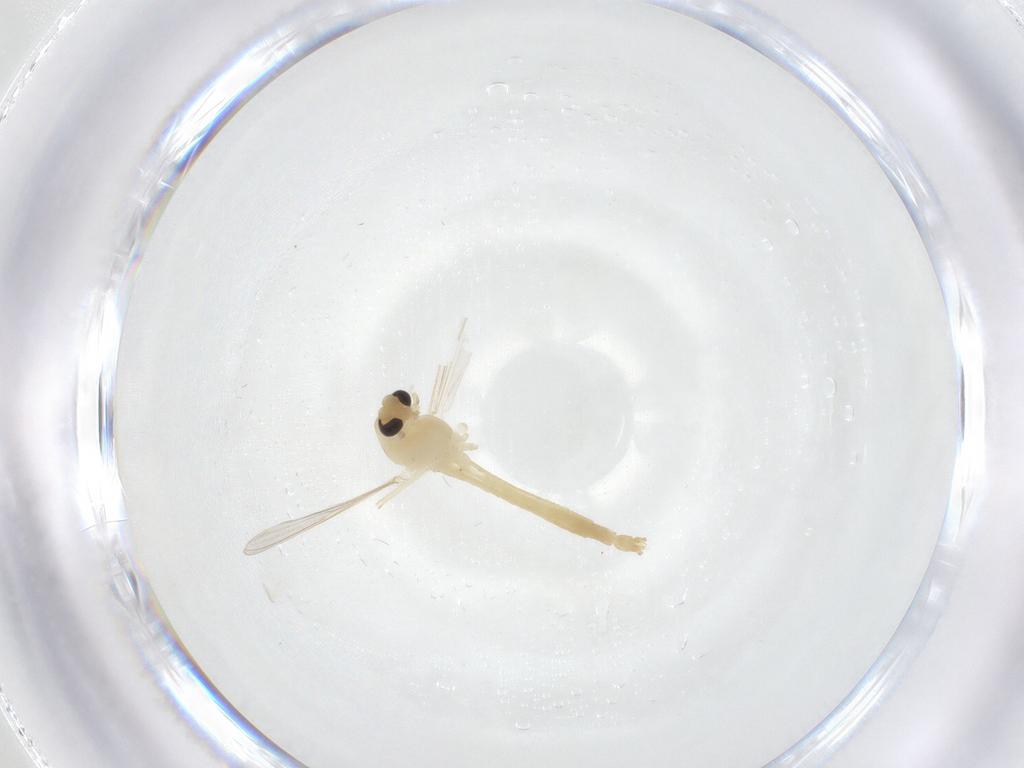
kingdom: Animalia
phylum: Arthropoda
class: Insecta
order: Diptera
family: Chironomidae
